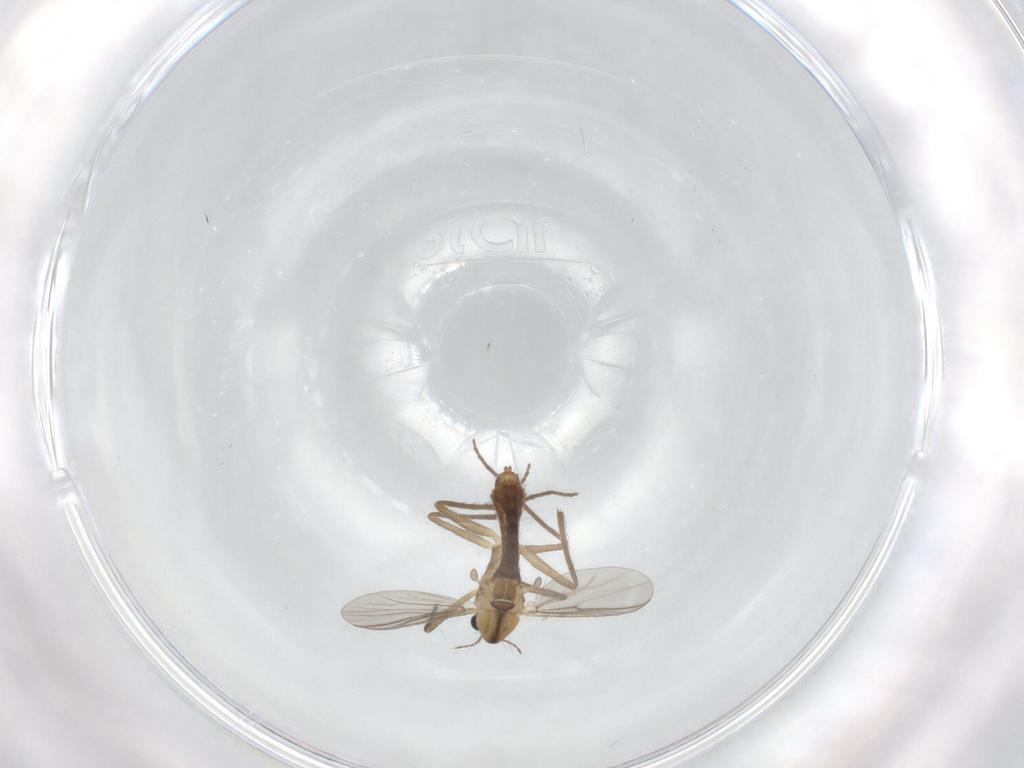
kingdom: Animalia
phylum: Arthropoda
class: Insecta
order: Diptera
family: Chironomidae
